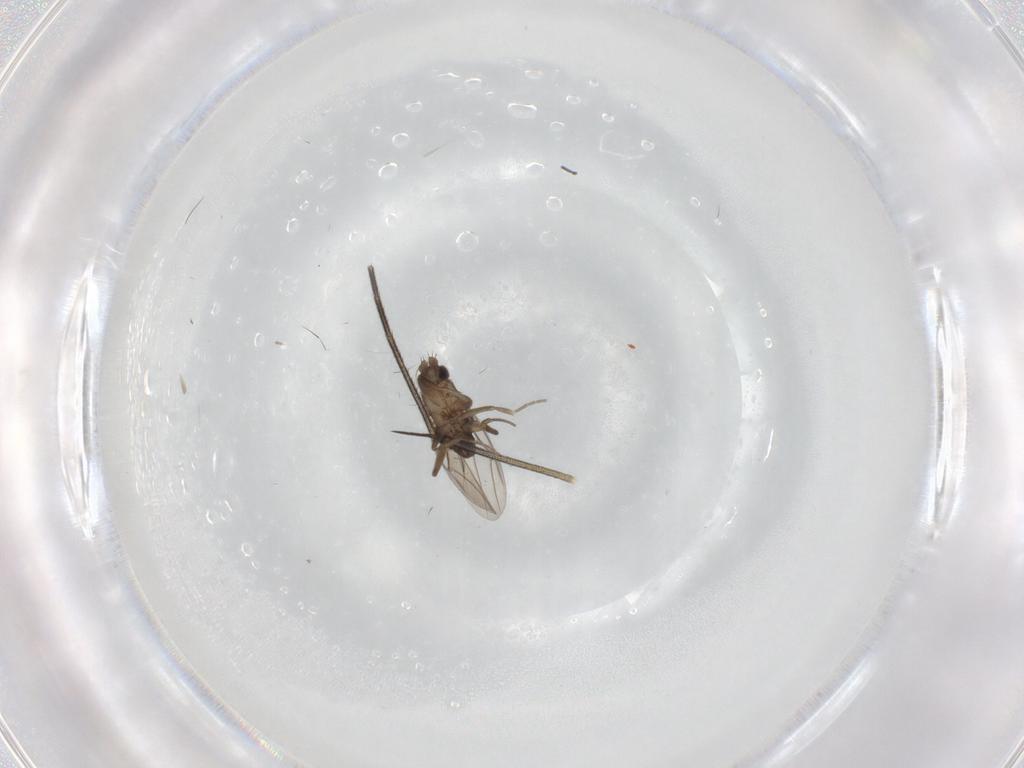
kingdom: Animalia
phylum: Arthropoda
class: Insecta
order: Diptera
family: Phoridae
